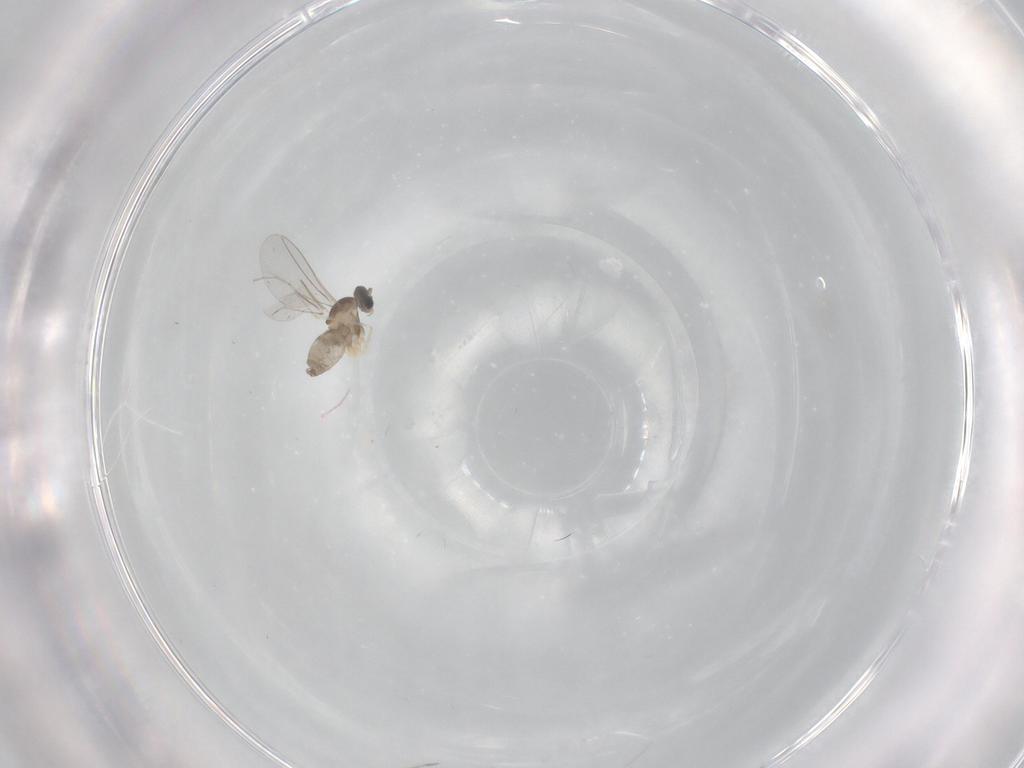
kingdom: Animalia
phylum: Arthropoda
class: Insecta
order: Diptera
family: Cecidomyiidae
